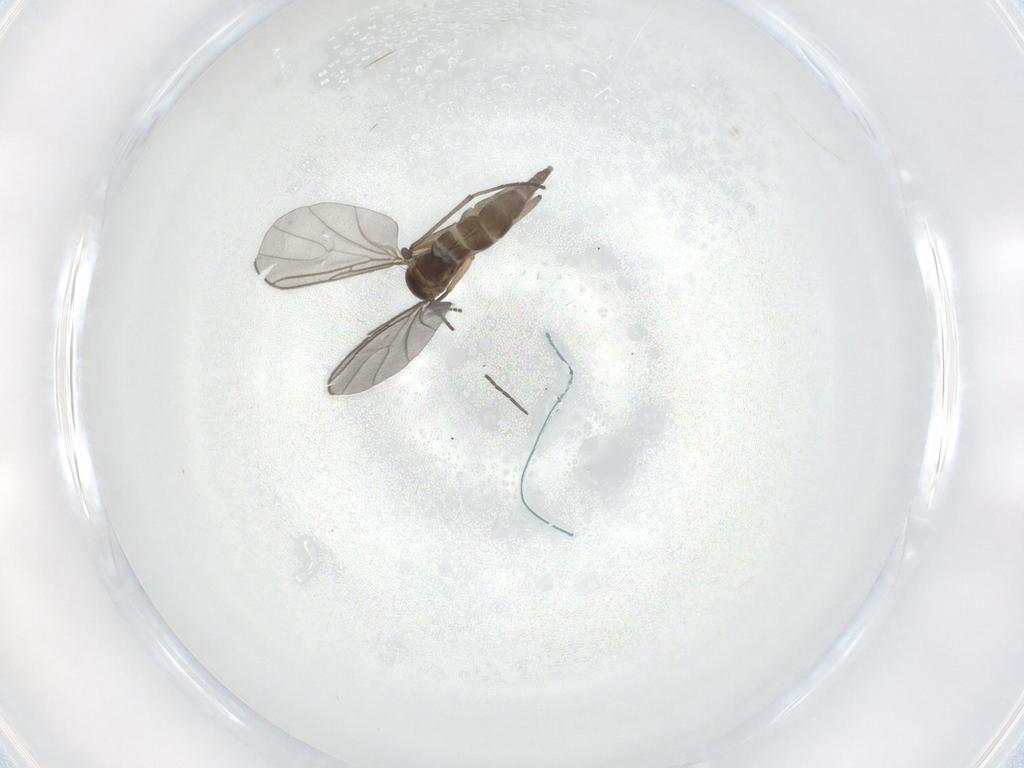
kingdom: Animalia
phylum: Arthropoda
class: Insecta
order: Diptera
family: Sciaridae
